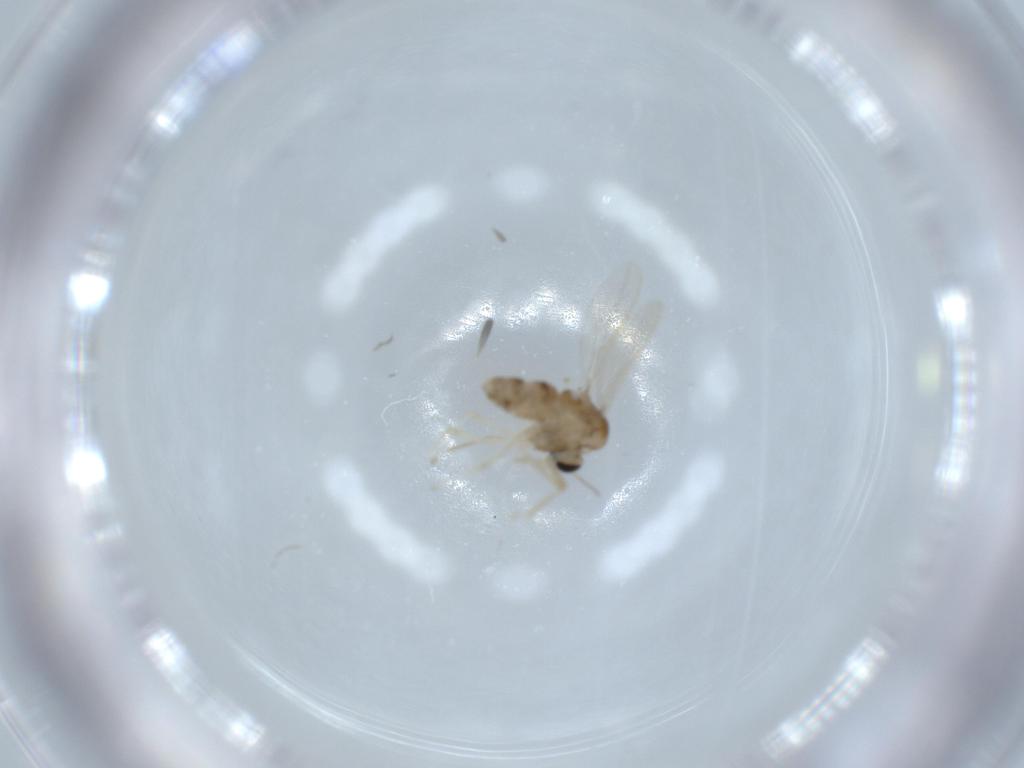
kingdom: Animalia
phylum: Arthropoda
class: Insecta
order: Diptera
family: Chironomidae
